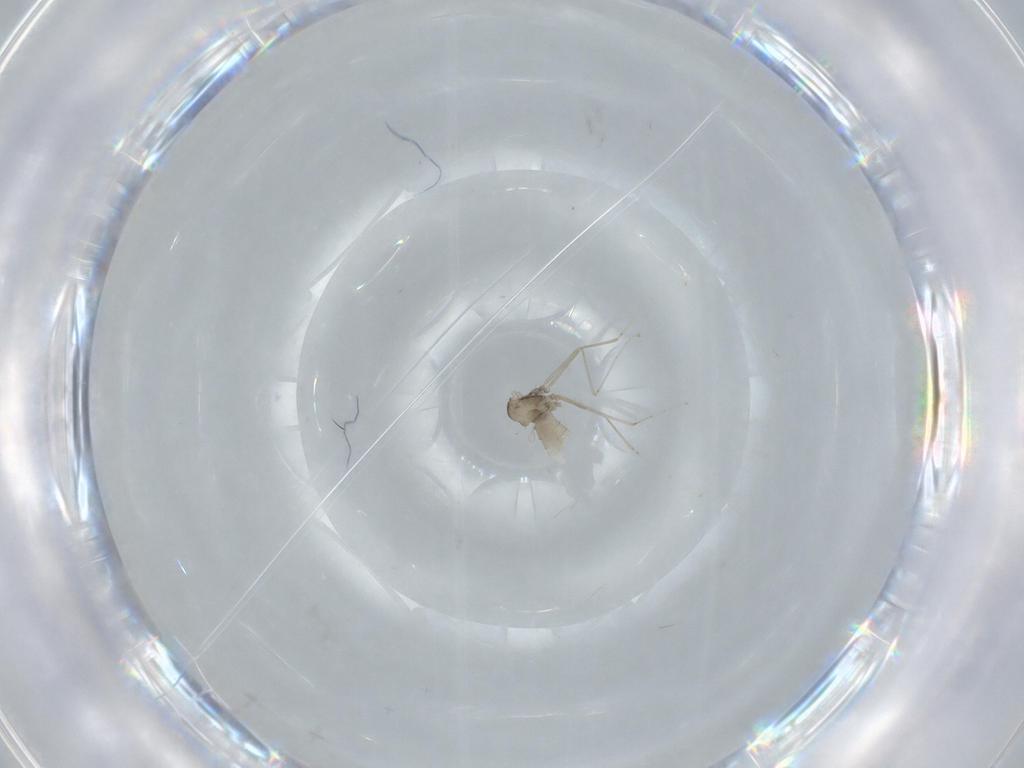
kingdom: Animalia
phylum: Arthropoda
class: Insecta
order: Diptera
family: Cecidomyiidae
